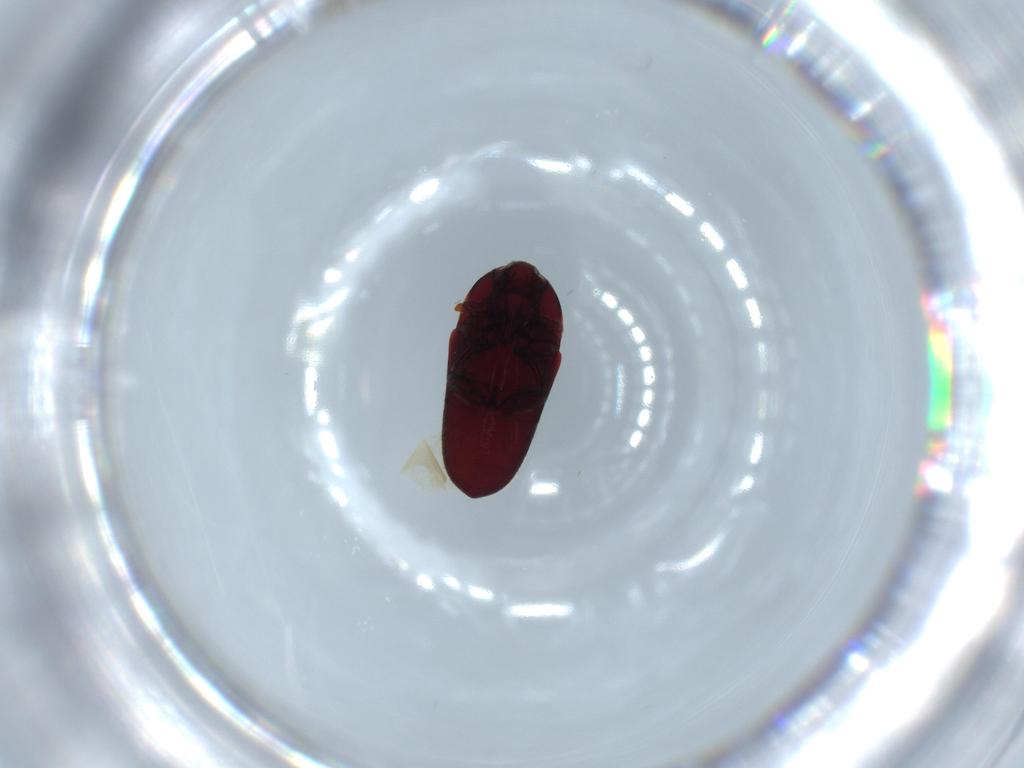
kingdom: Animalia
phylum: Arthropoda
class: Insecta
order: Coleoptera
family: Throscidae
